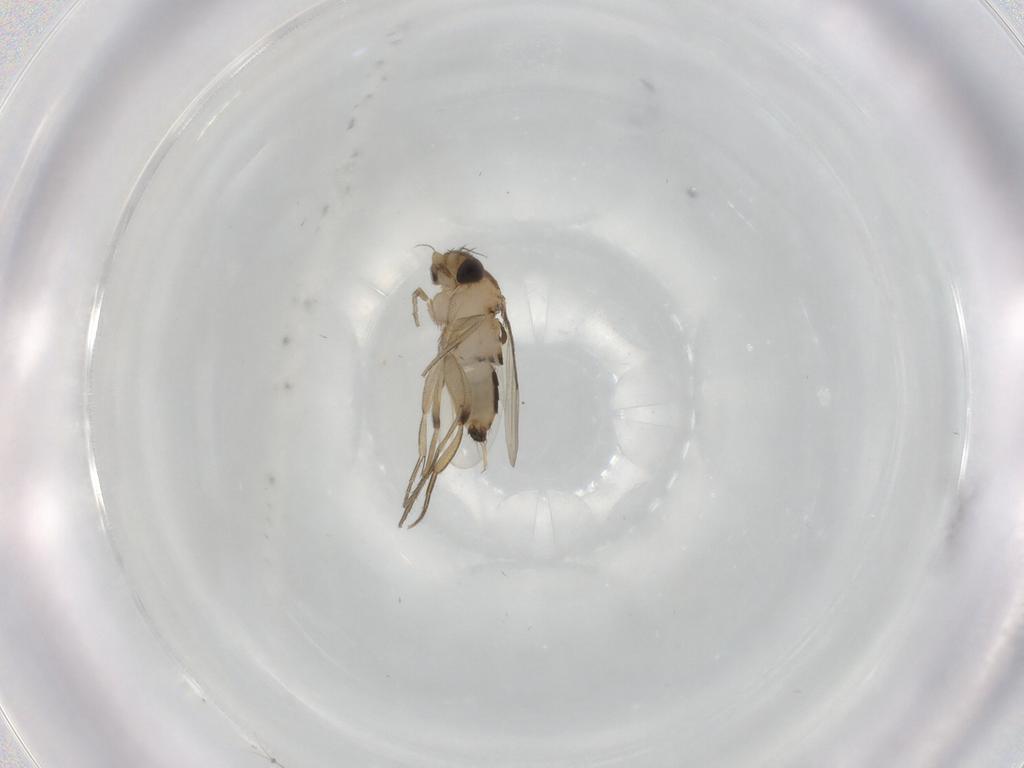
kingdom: Animalia
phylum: Arthropoda
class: Insecta
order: Diptera
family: Phoridae
